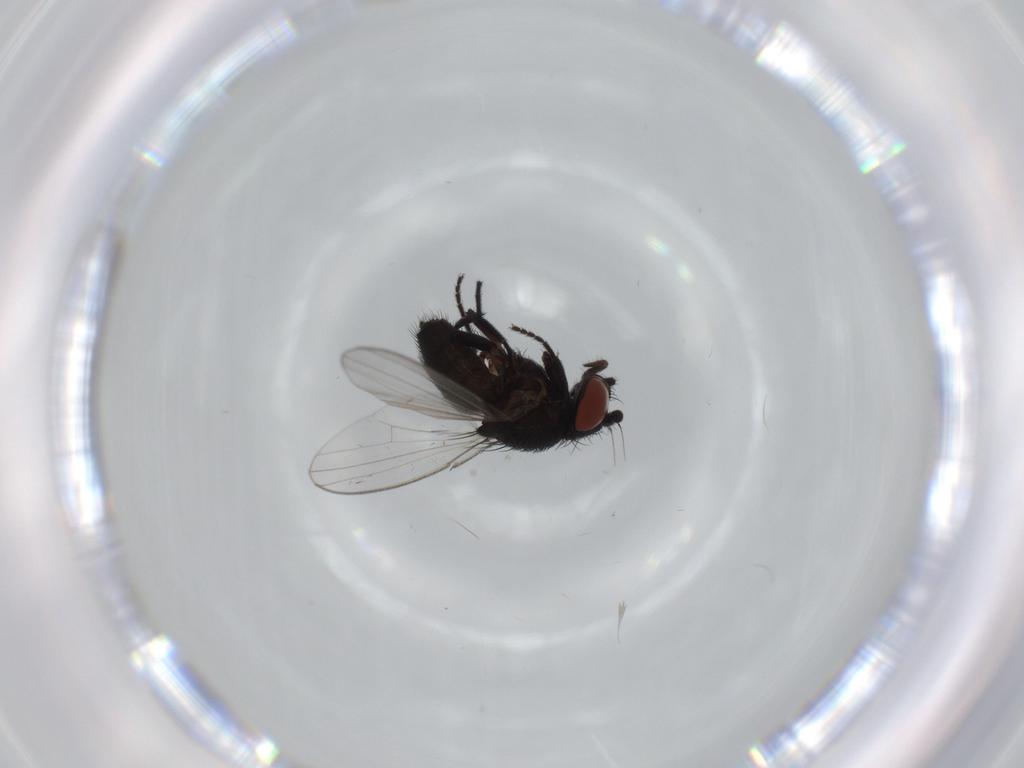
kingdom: Animalia
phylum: Arthropoda
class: Insecta
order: Diptera
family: Milichiidae
